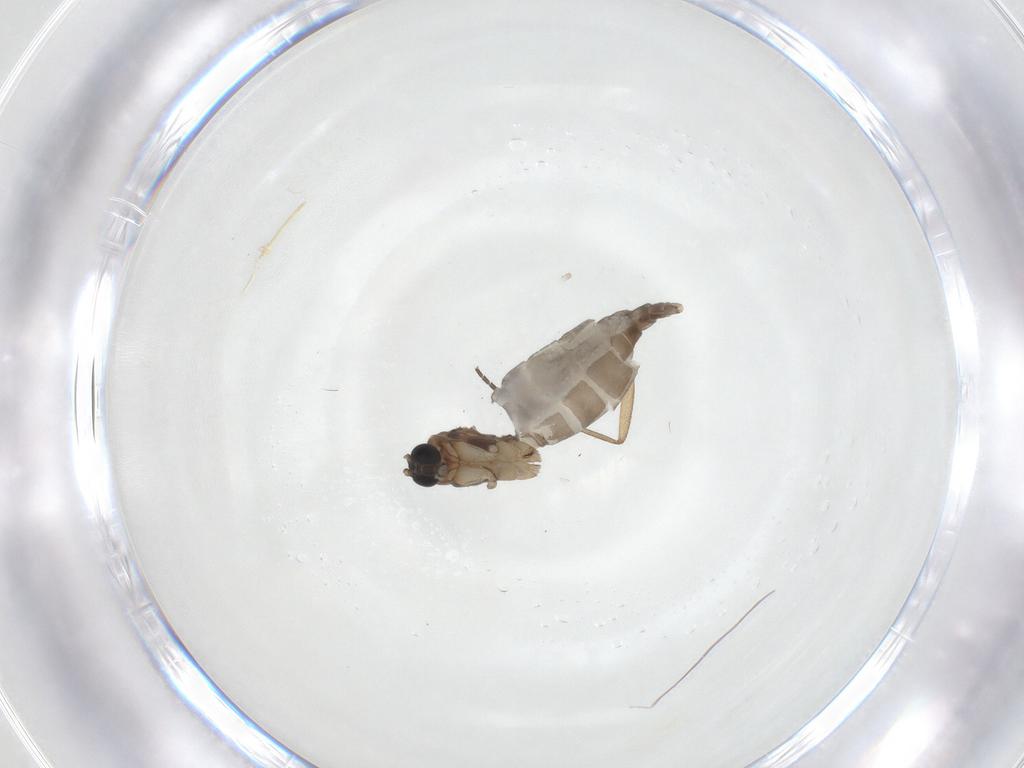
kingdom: Animalia
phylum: Arthropoda
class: Insecta
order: Diptera
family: Sciaridae
